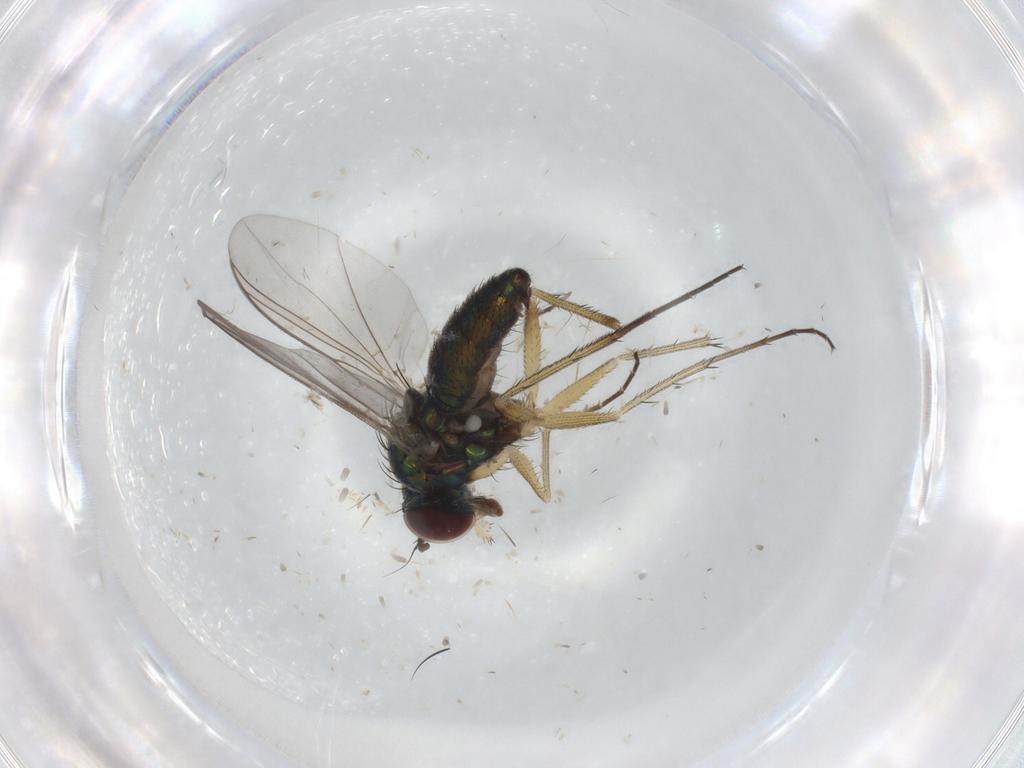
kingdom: Animalia
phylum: Arthropoda
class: Insecta
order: Diptera
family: Dolichopodidae
